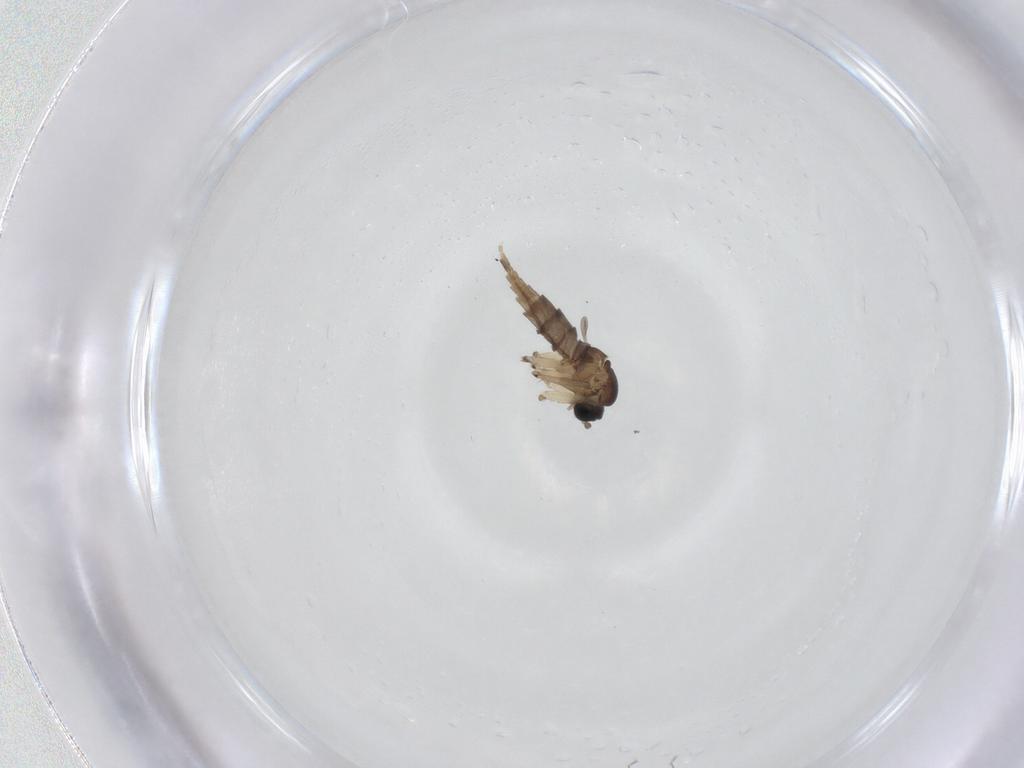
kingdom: Animalia
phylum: Arthropoda
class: Insecta
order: Diptera
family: Sciaridae
